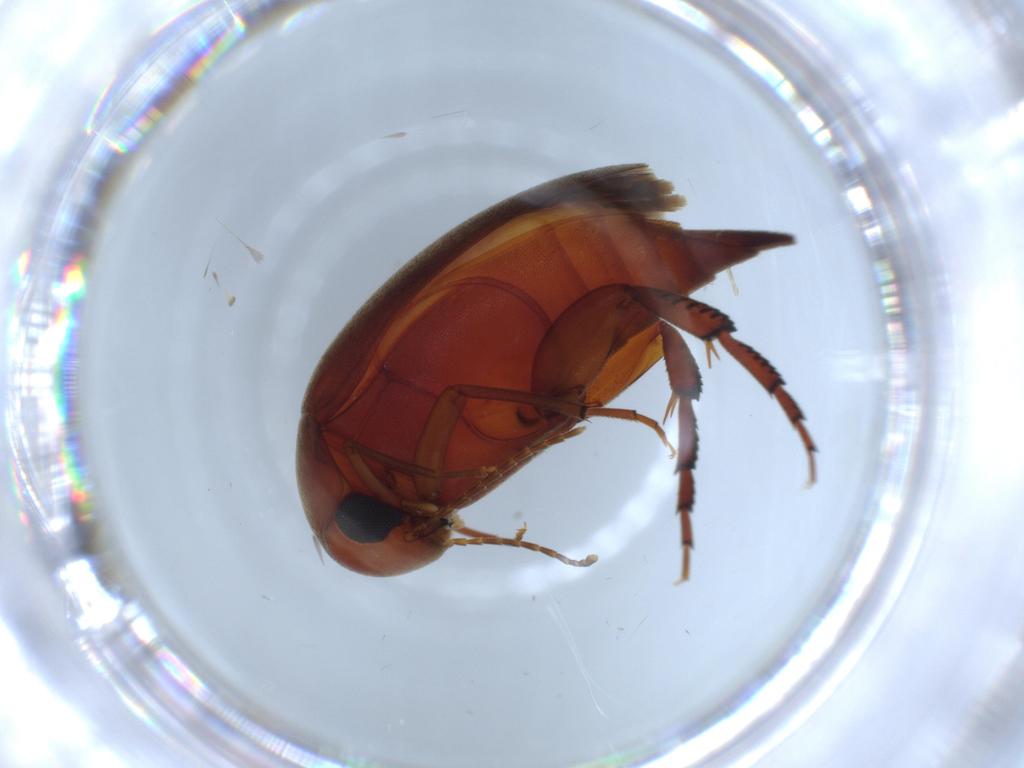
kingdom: Animalia
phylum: Arthropoda
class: Insecta
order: Coleoptera
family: Mordellidae
